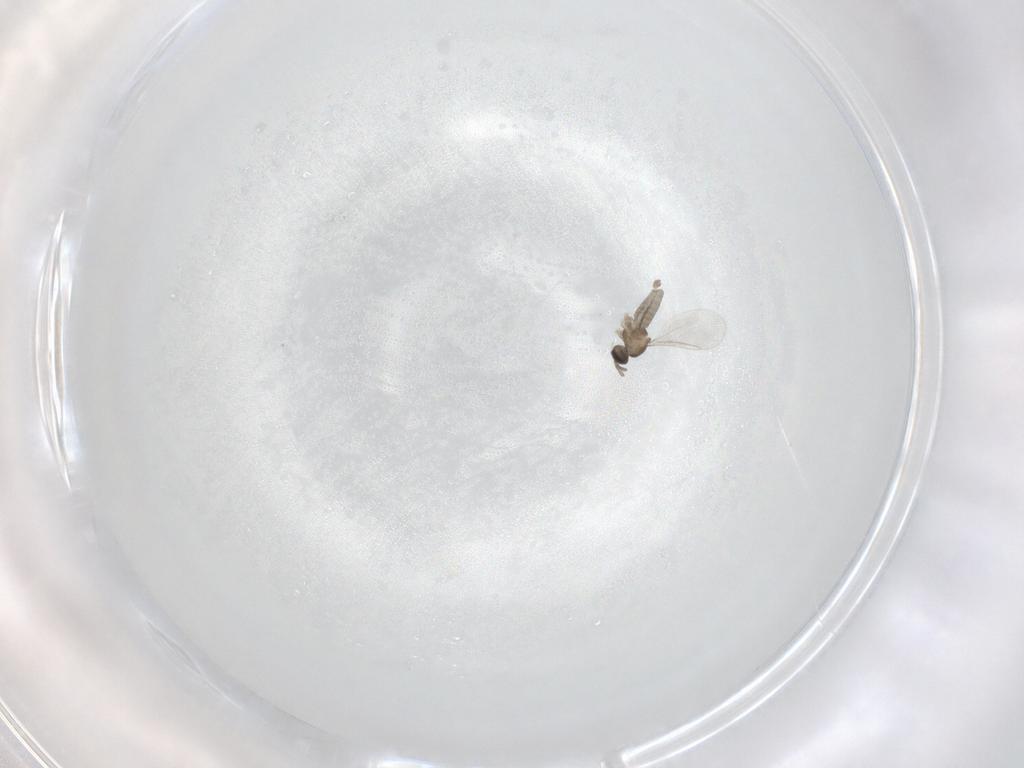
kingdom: Animalia
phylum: Arthropoda
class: Insecta
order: Diptera
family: Cecidomyiidae
